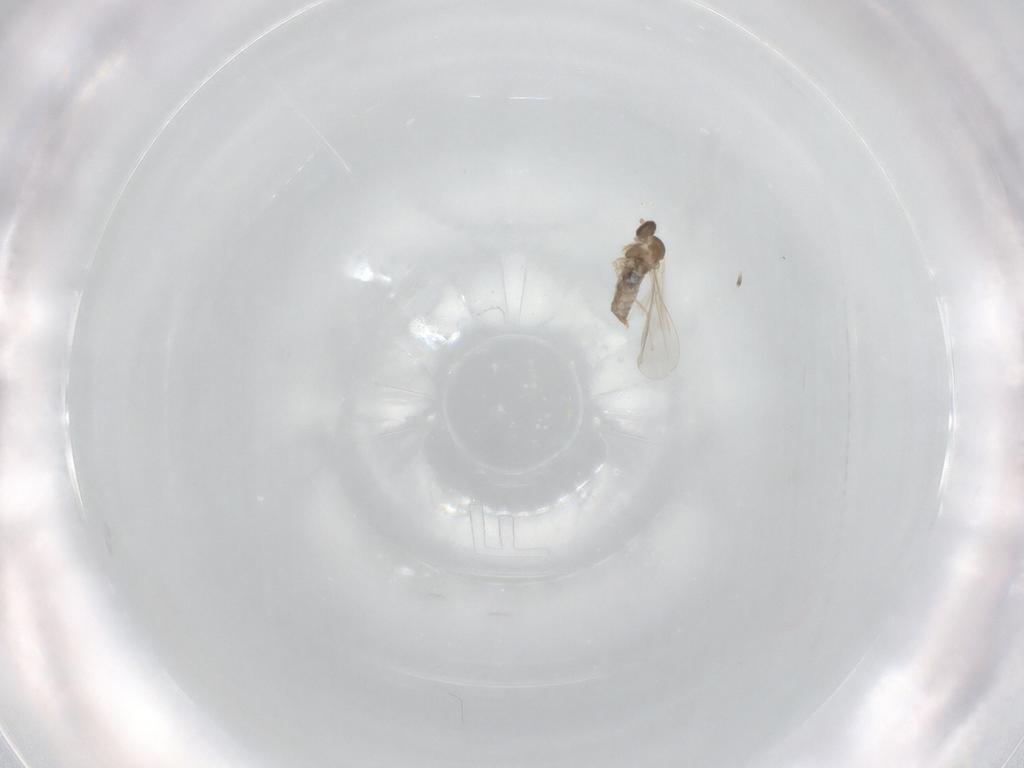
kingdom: Animalia
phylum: Arthropoda
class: Insecta
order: Diptera
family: Cecidomyiidae
